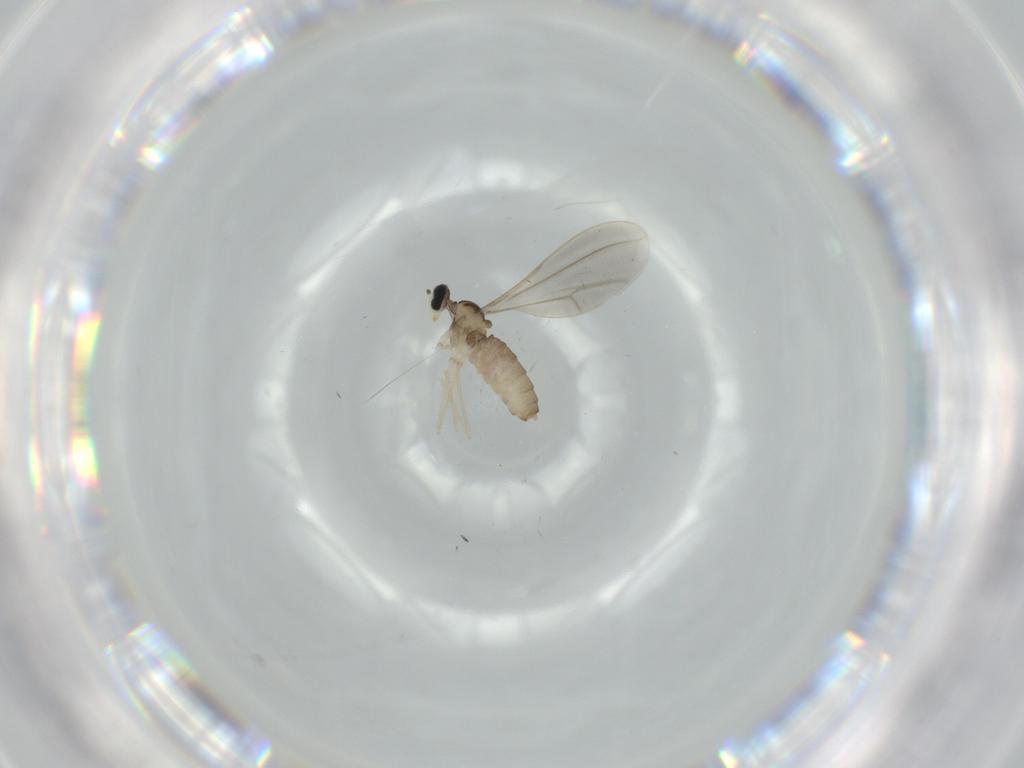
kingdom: Animalia
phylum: Arthropoda
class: Insecta
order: Diptera
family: Cecidomyiidae
